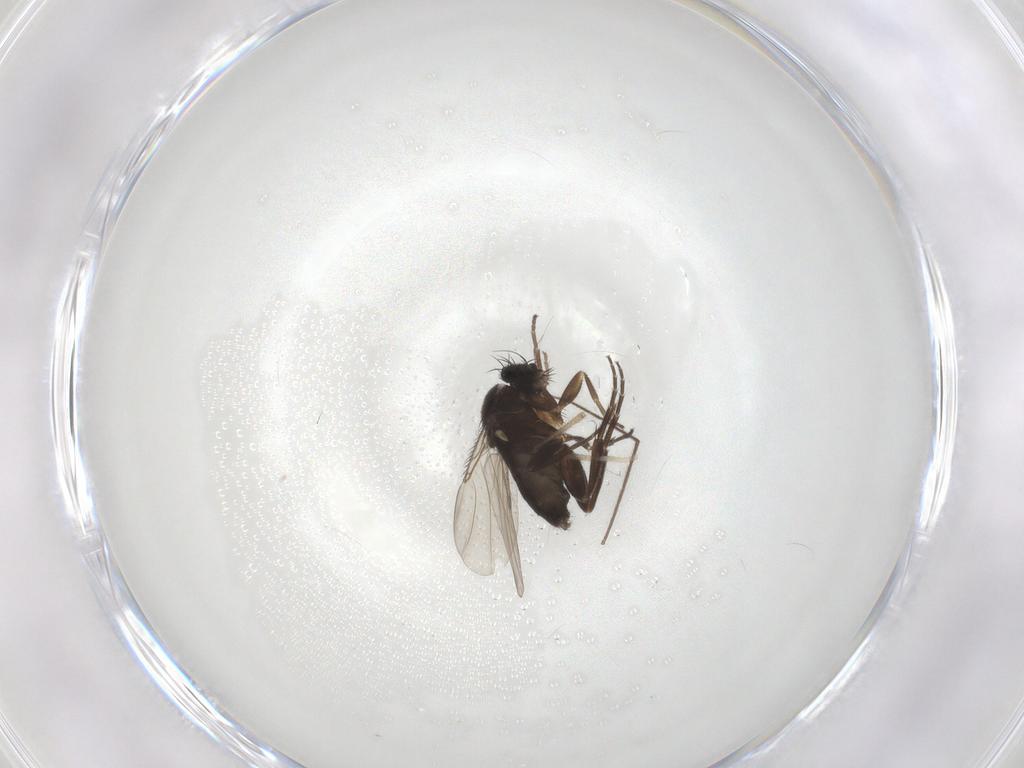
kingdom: Animalia
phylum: Arthropoda
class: Insecta
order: Diptera
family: Phoridae
